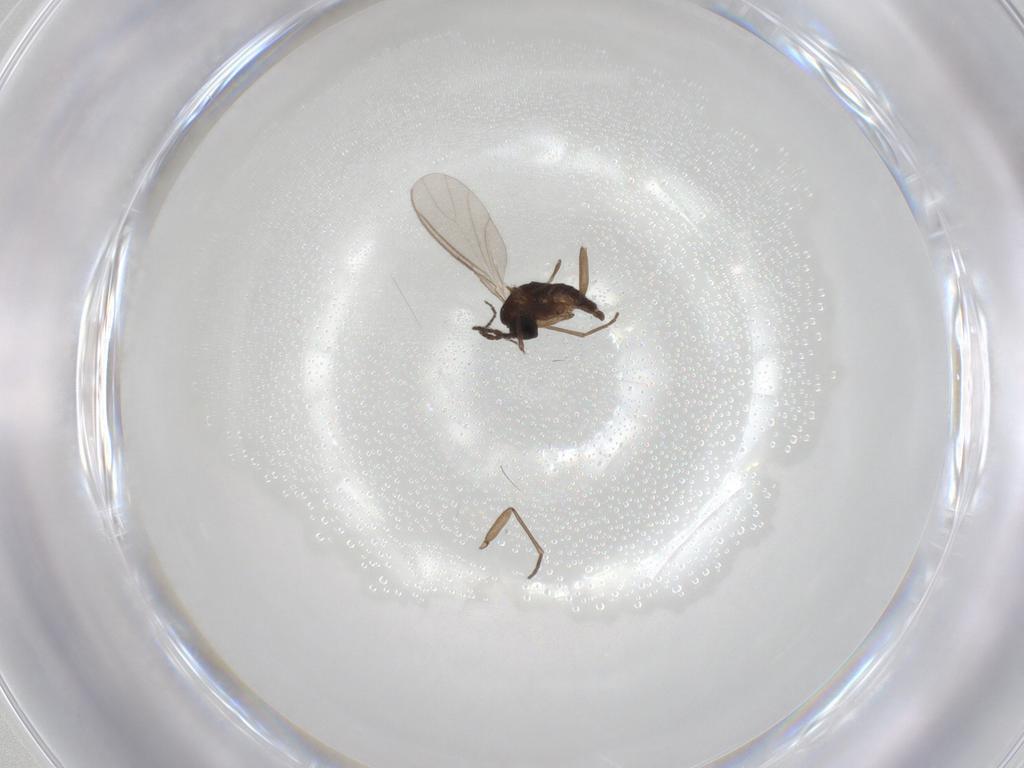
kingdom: Animalia
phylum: Arthropoda
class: Insecta
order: Diptera
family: Sciaridae
